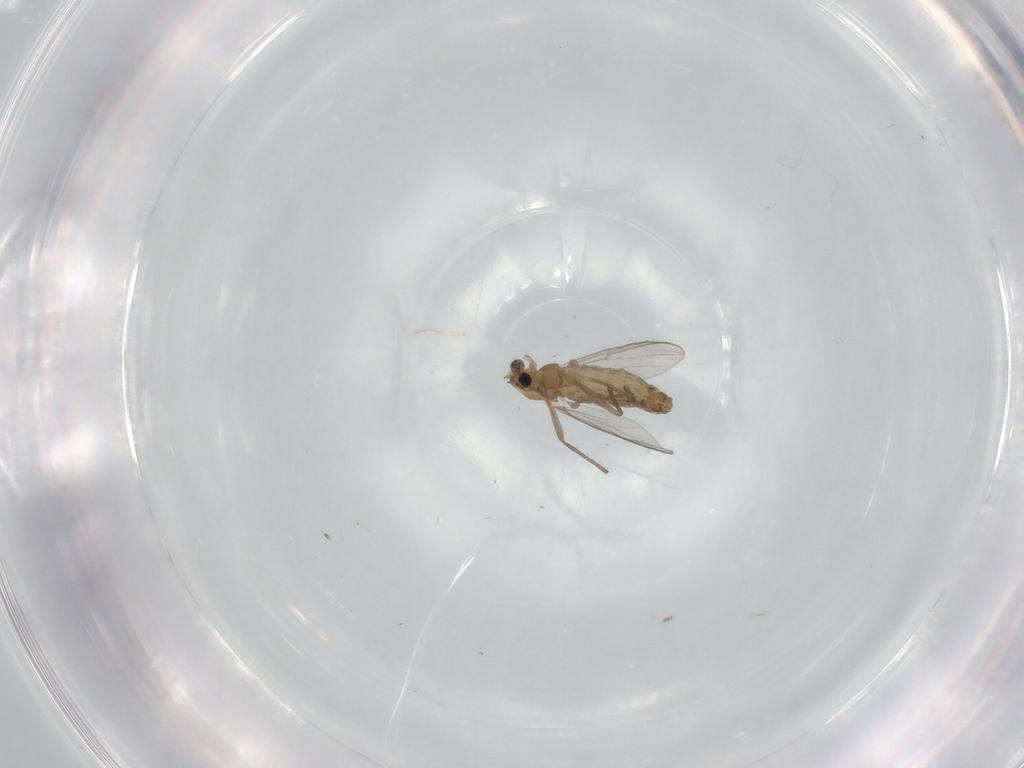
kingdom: Animalia
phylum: Arthropoda
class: Insecta
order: Diptera
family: Chironomidae
